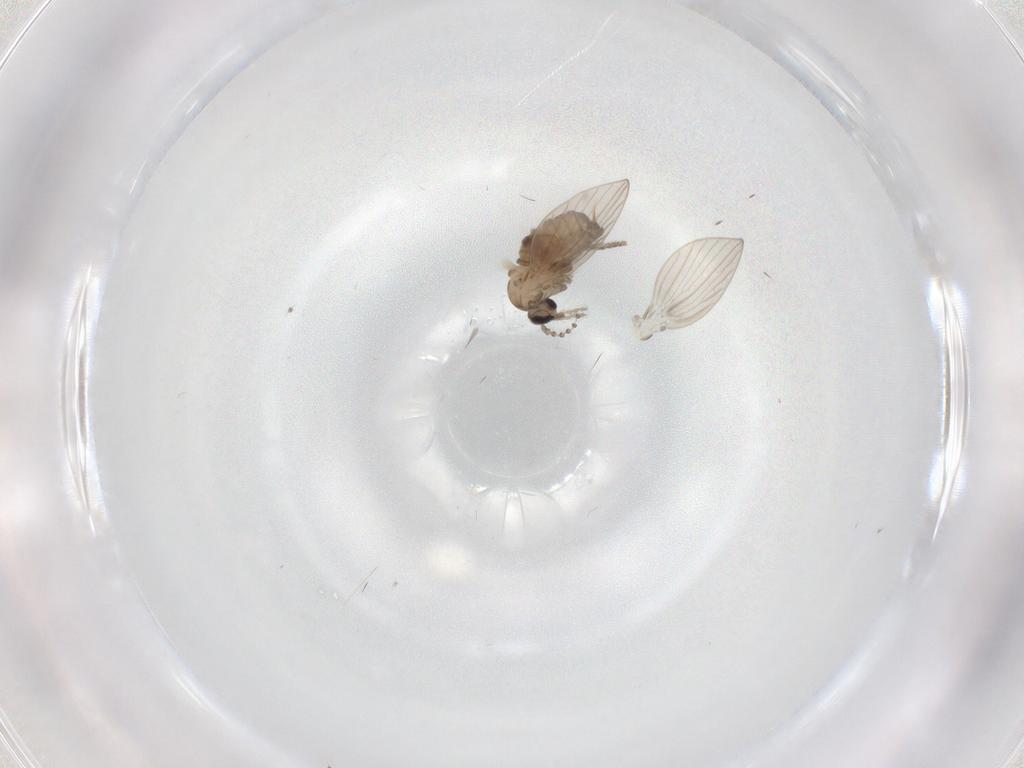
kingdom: Animalia
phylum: Arthropoda
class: Insecta
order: Diptera
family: Psychodidae
